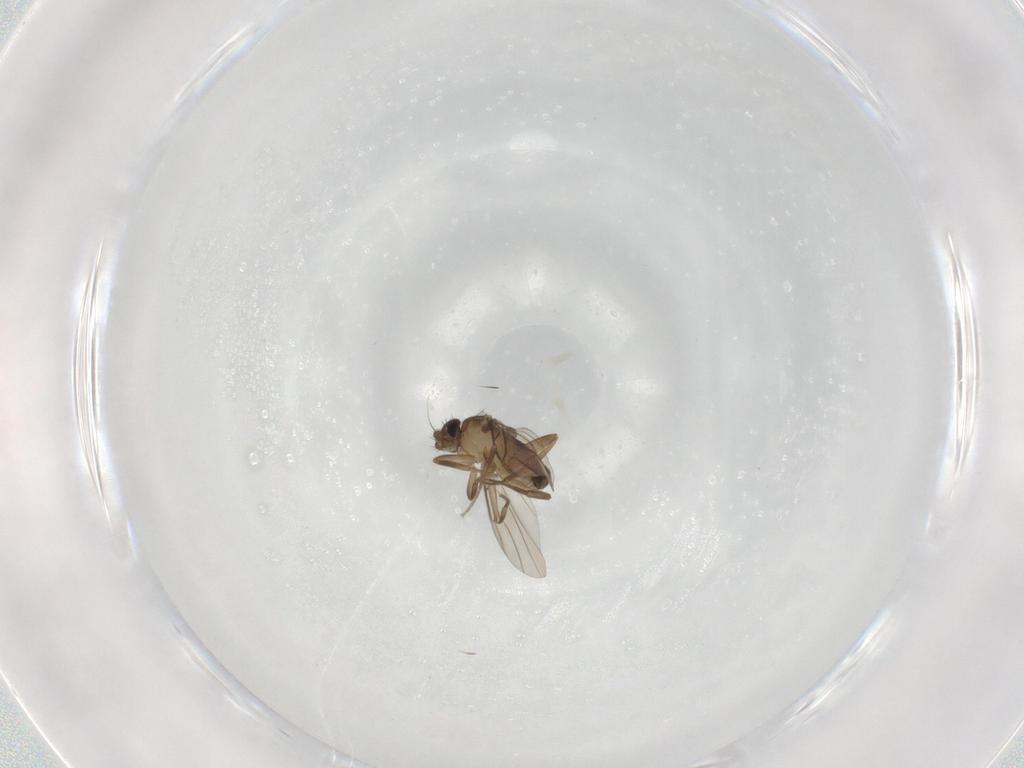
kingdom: Animalia
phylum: Arthropoda
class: Insecta
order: Diptera
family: Phoridae
